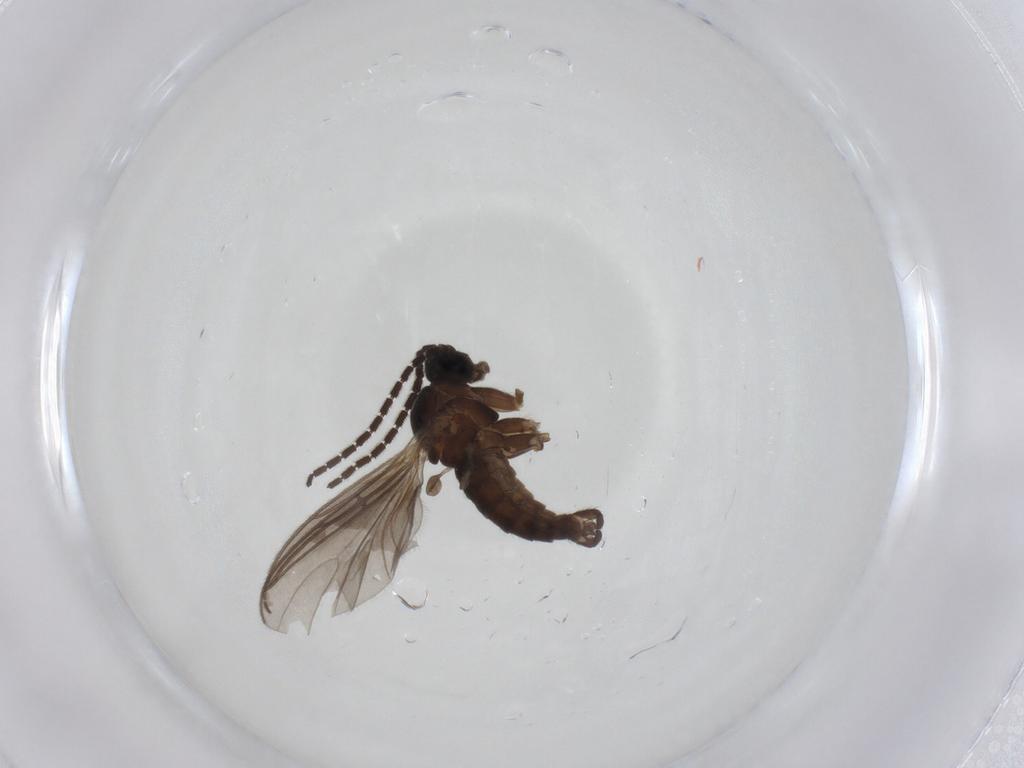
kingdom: Animalia
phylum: Arthropoda
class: Insecta
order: Diptera
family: Sciaridae
